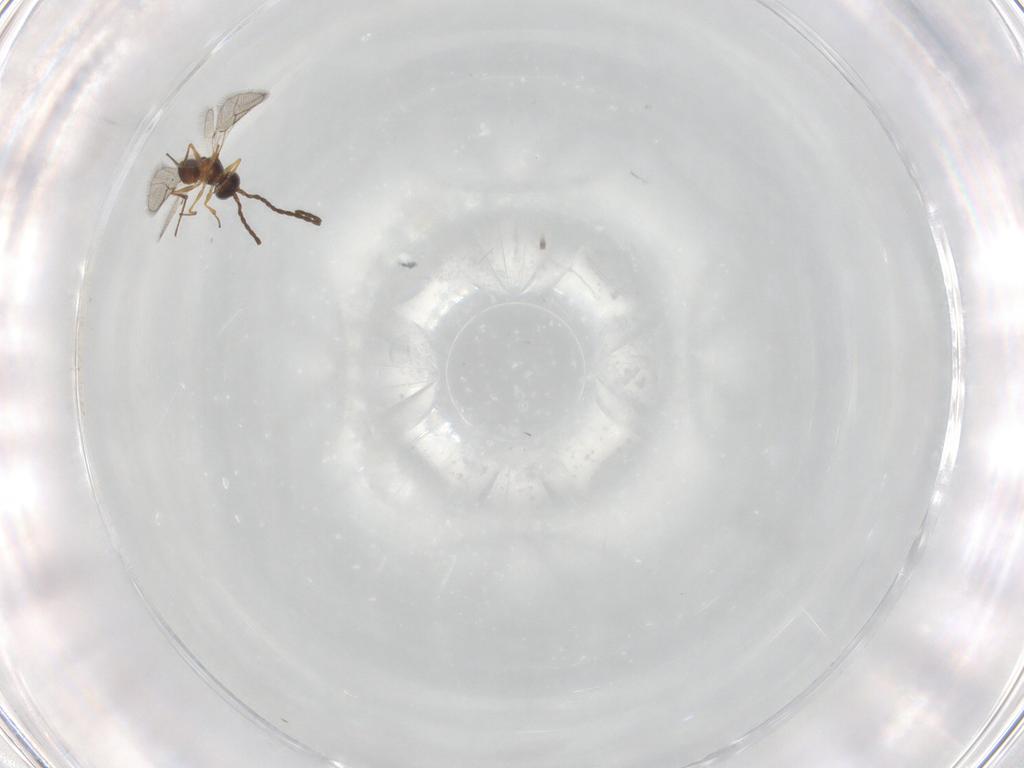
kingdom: Animalia
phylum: Arthropoda
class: Insecta
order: Hymenoptera
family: Figitidae
